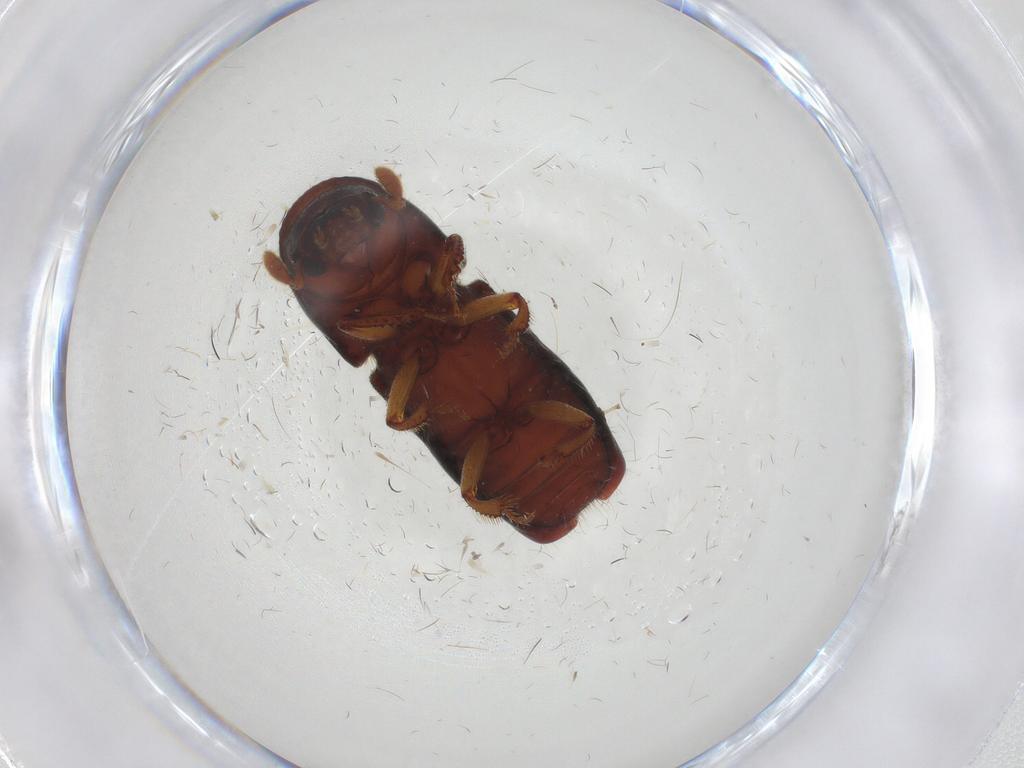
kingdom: Animalia
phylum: Arthropoda
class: Insecta
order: Coleoptera
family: Curculionidae
